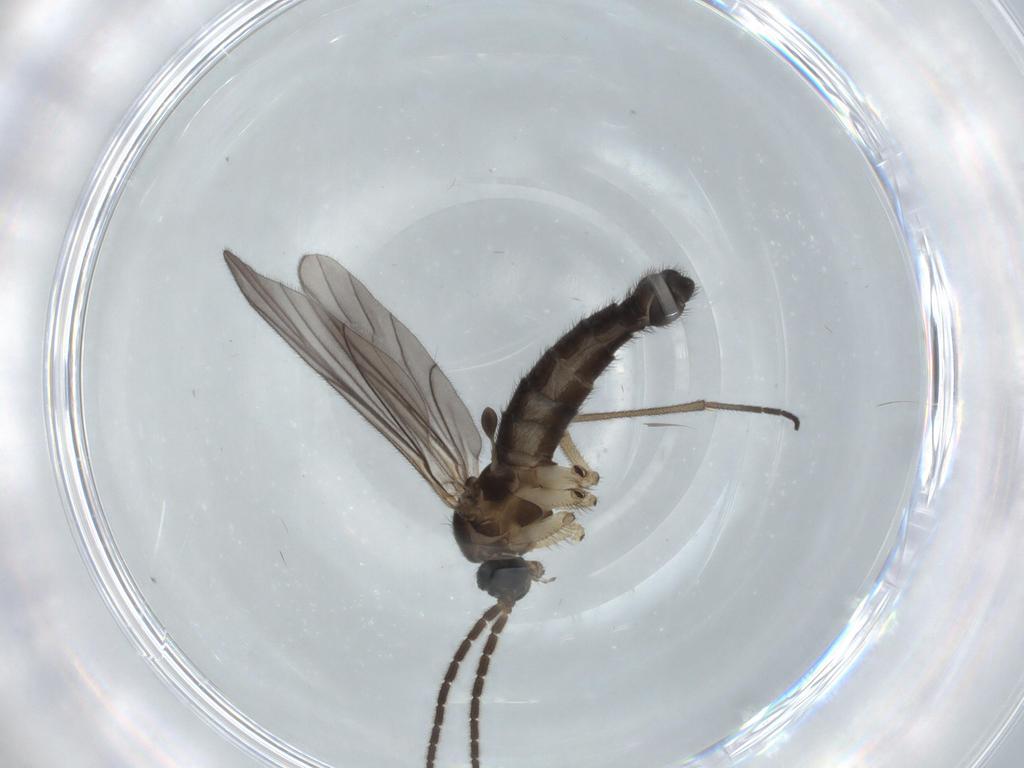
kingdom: Animalia
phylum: Arthropoda
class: Insecta
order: Diptera
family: Sciaridae
